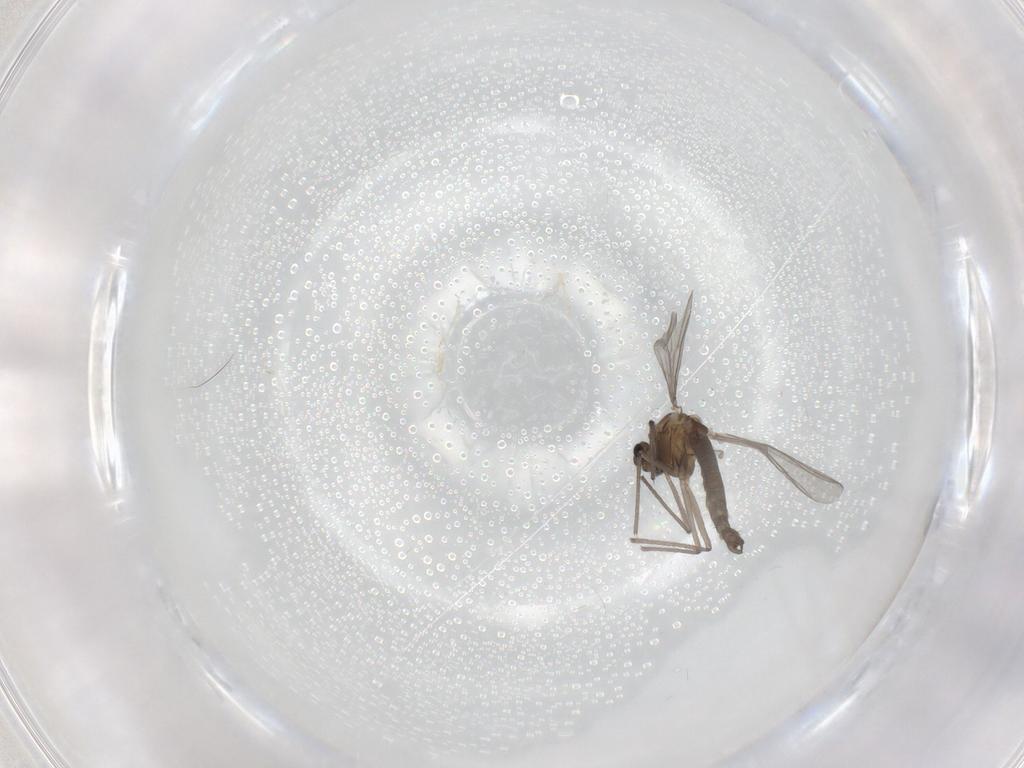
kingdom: Animalia
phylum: Arthropoda
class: Insecta
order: Diptera
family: Chironomidae
